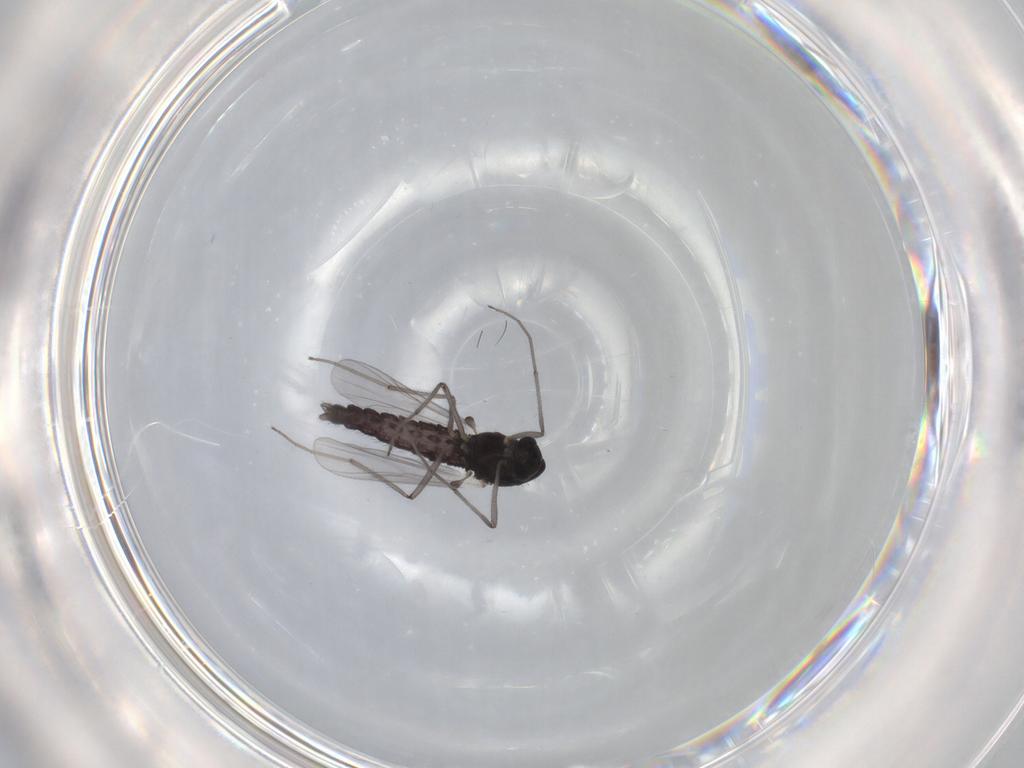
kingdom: Animalia
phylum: Arthropoda
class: Insecta
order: Diptera
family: Chironomidae
